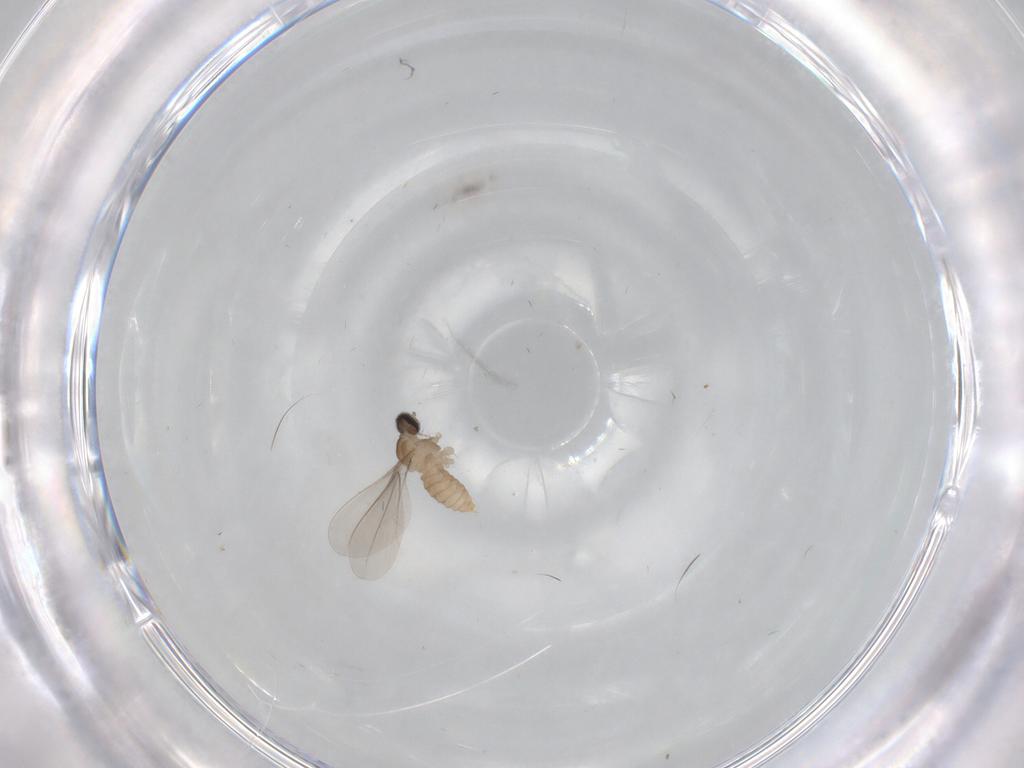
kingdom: Animalia
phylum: Arthropoda
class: Insecta
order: Diptera
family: Sciaridae
